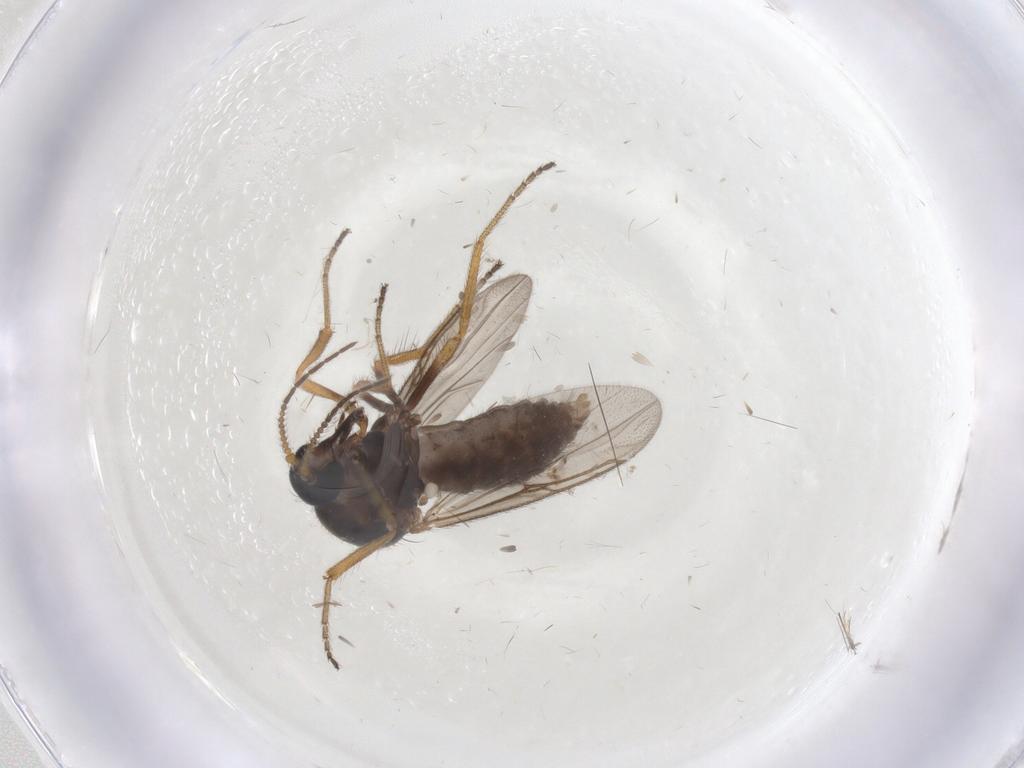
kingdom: Animalia
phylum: Arthropoda
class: Insecta
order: Diptera
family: Ceratopogonidae
